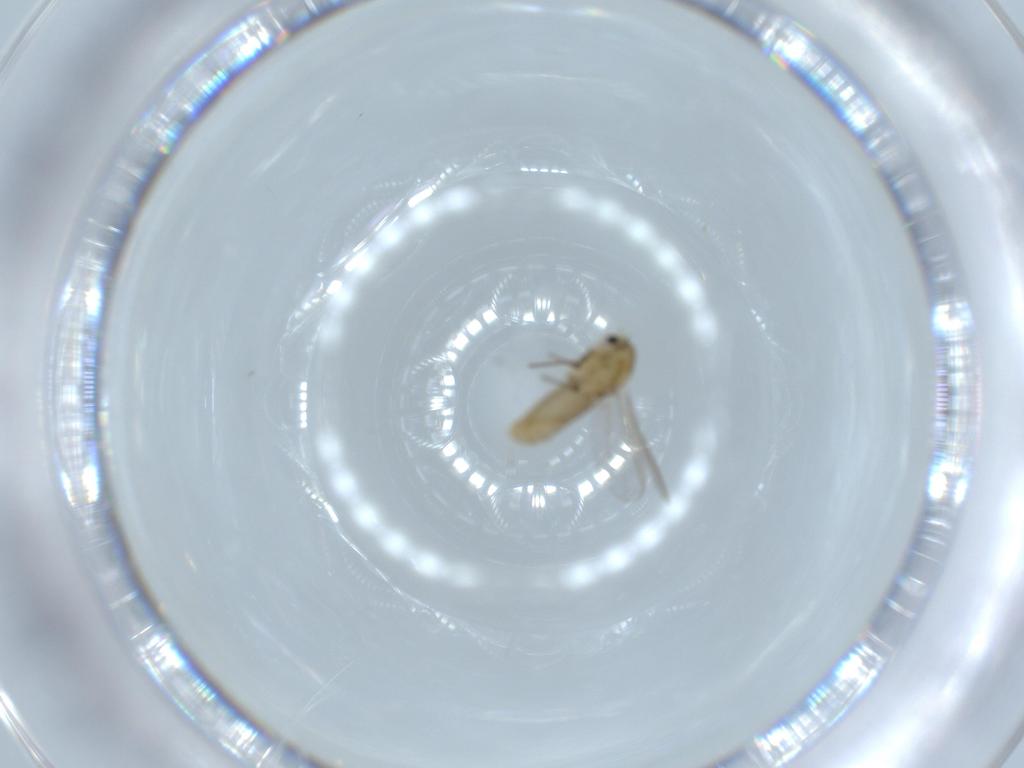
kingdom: Animalia
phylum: Arthropoda
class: Insecta
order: Diptera
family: Chironomidae
